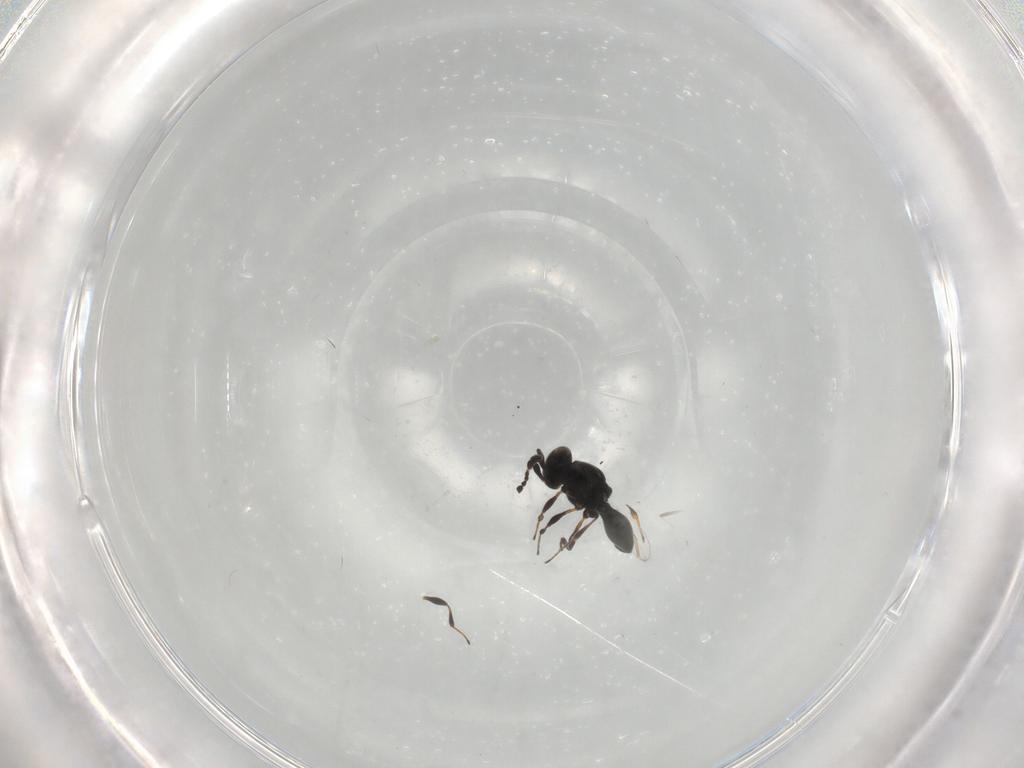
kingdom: Animalia
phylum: Arthropoda
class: Insecta
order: Hymenoptera
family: Platygastridae
